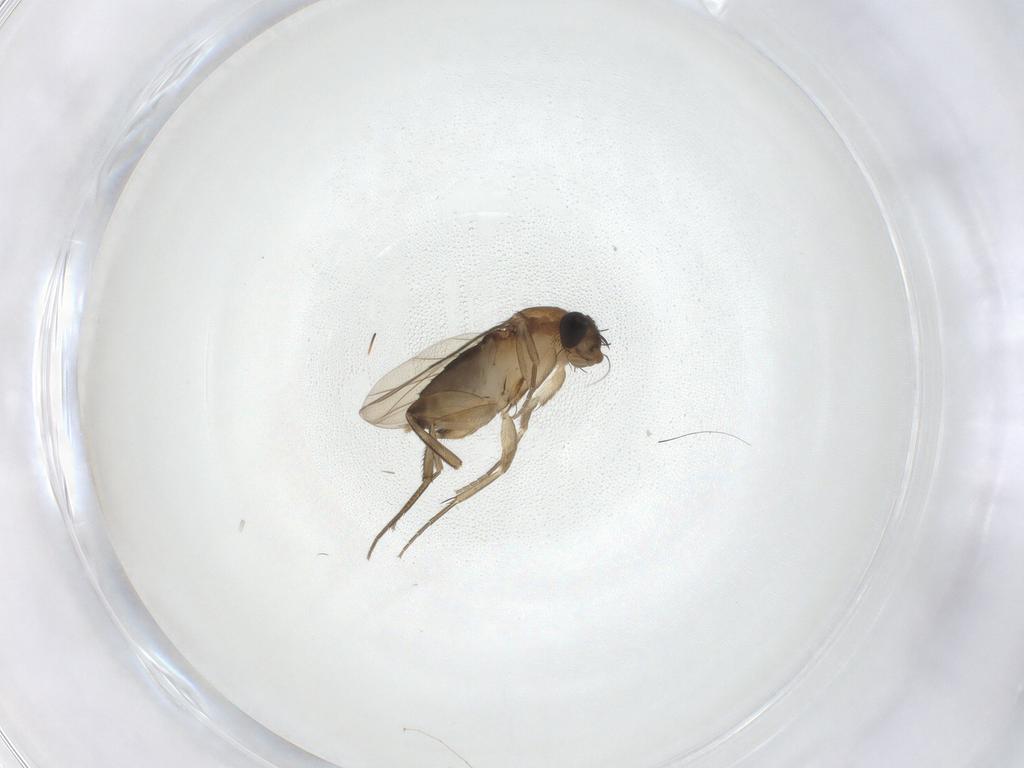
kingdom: Animalia
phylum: Arthropoda
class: Insecta
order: Diptera
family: Phoridae
